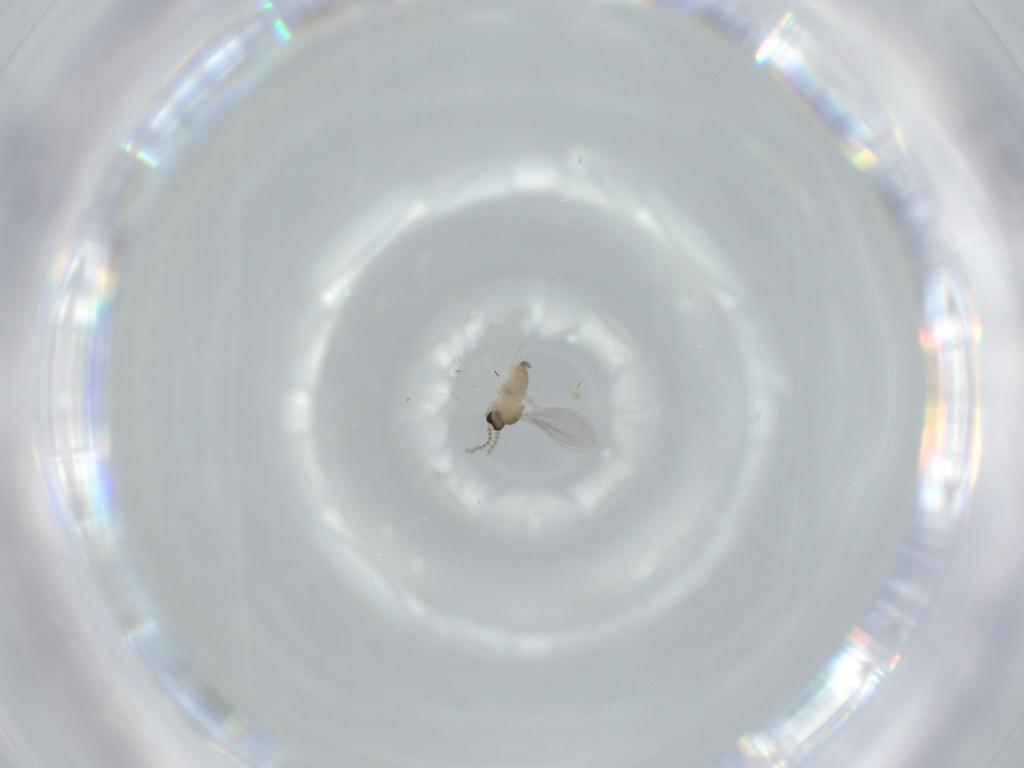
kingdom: Animalia
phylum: Arthropoda
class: Insecta
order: Diptera
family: Cecidomyiidae
